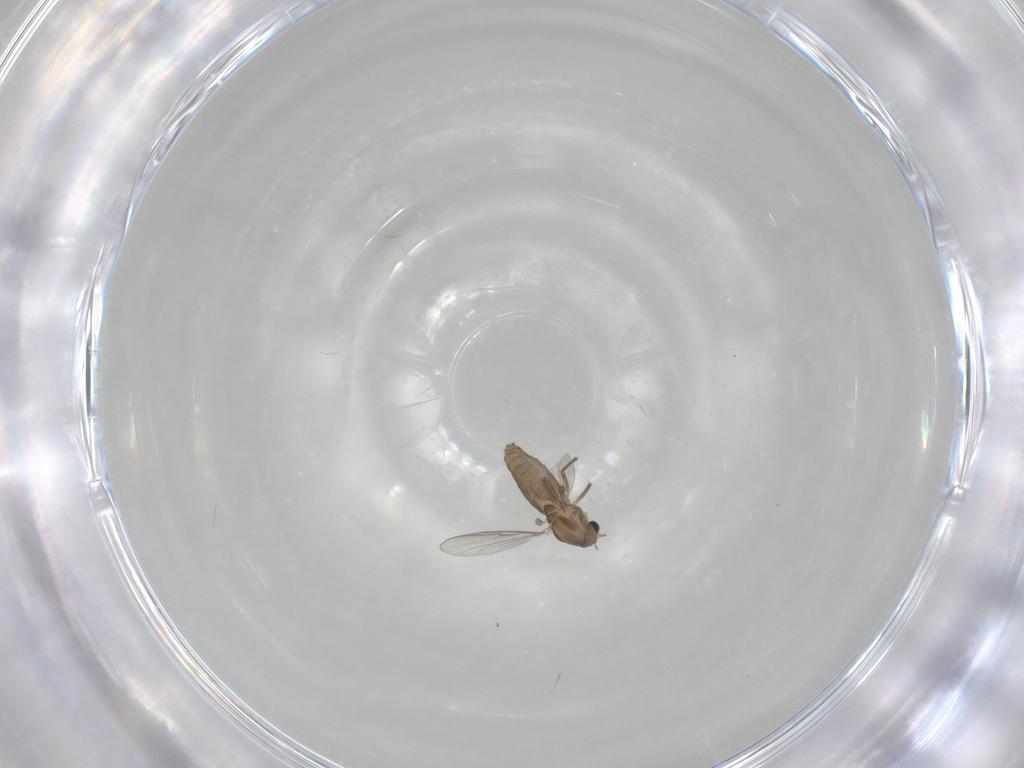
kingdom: Animalia
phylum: Arthropoda
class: Insecta
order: Diptera
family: Chironomidae
